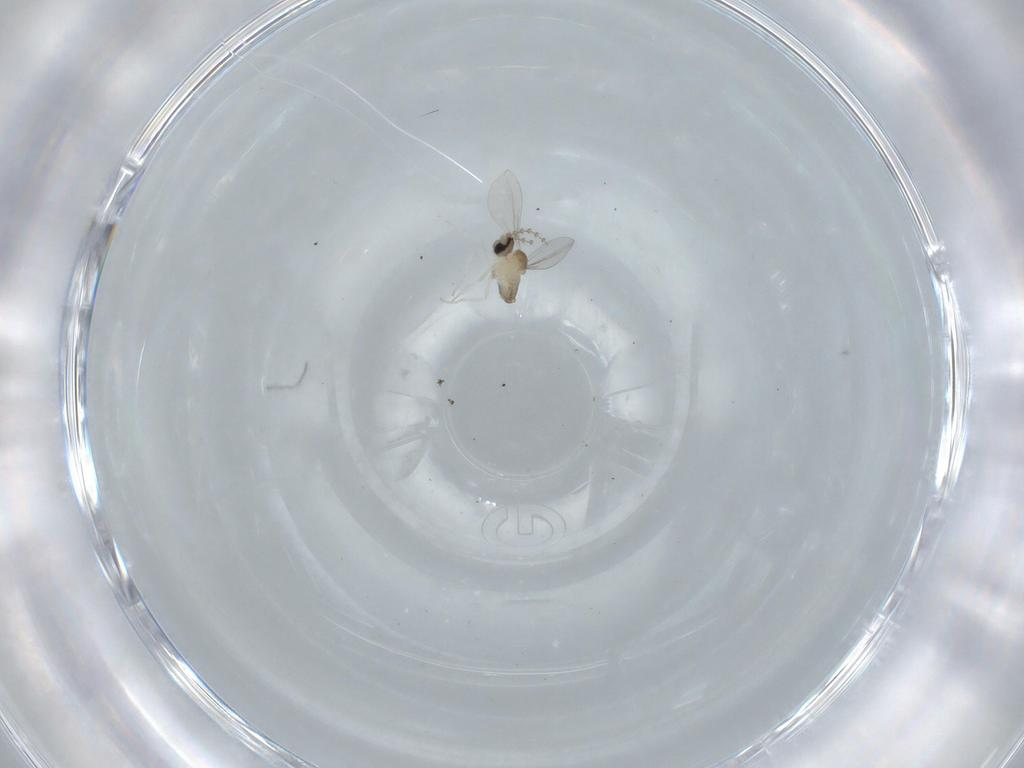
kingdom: Animalia
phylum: Arthropoda
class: Insecta
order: Diptera
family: Cecidomyiidae
